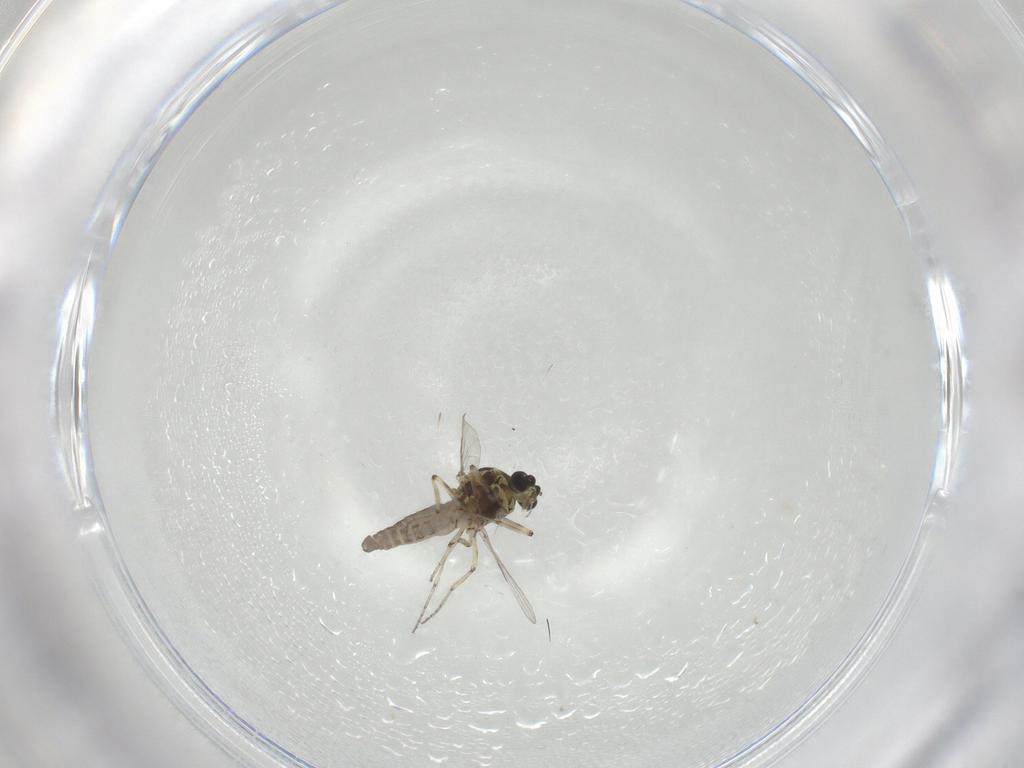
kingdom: Animalia
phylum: Arthropoda
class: Insecta
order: Diptera
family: Ceratopogonidae
